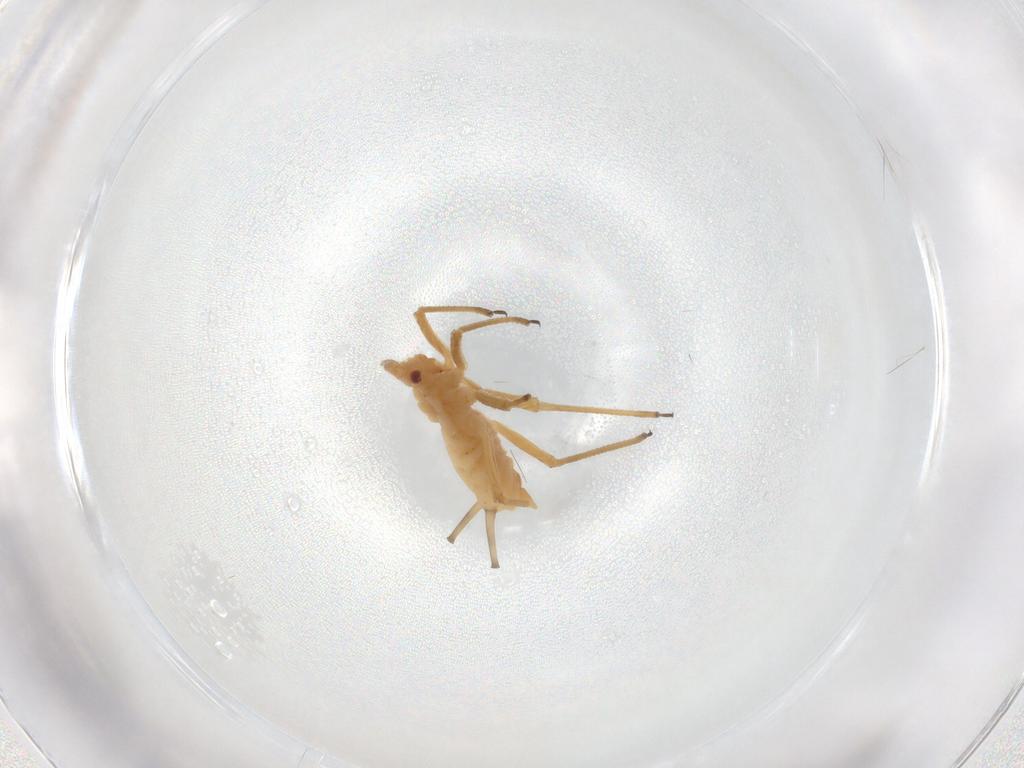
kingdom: Animalia
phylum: Arthropoda
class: Insecta
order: Hemiptera
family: Aphididae
